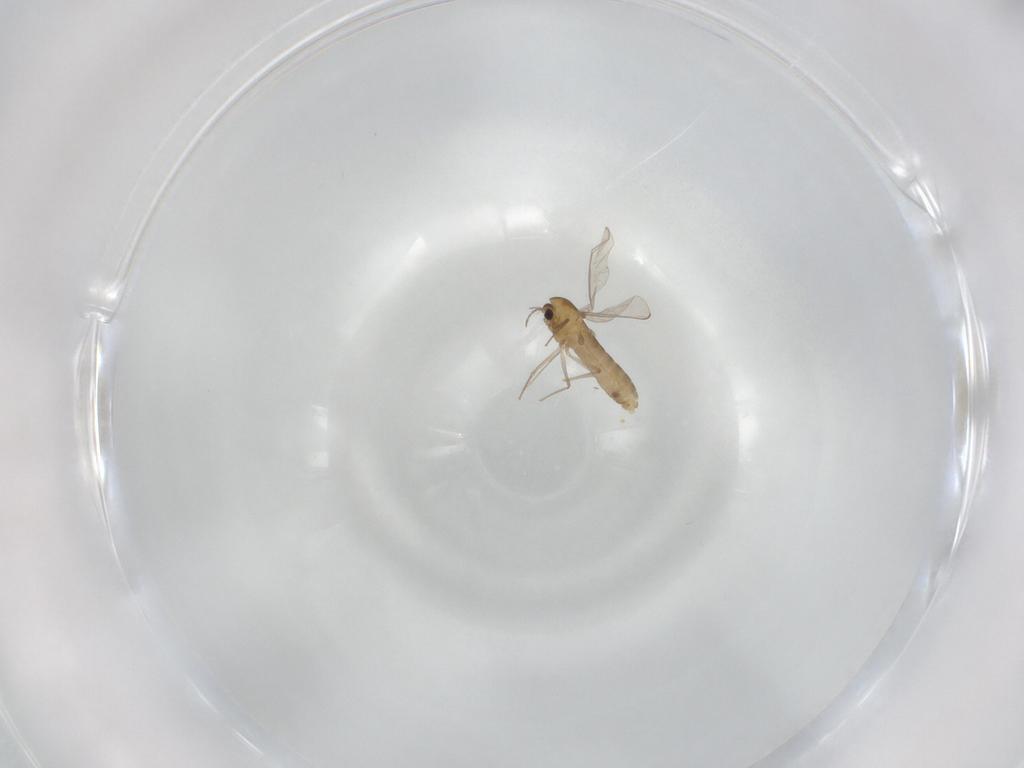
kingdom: Animalia
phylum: Arthropoda
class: Insecta
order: Diptera
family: Chironomidae
